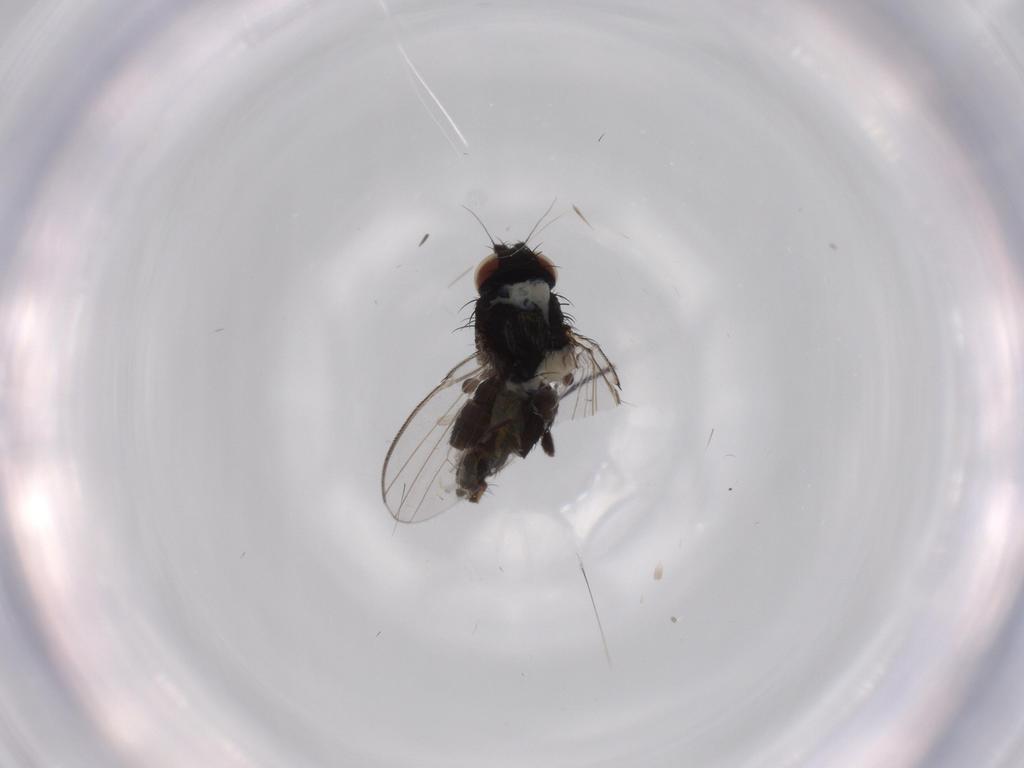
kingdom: Animalia
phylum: Arthropoda
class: Insecta
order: Diptera
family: Milichiidae
